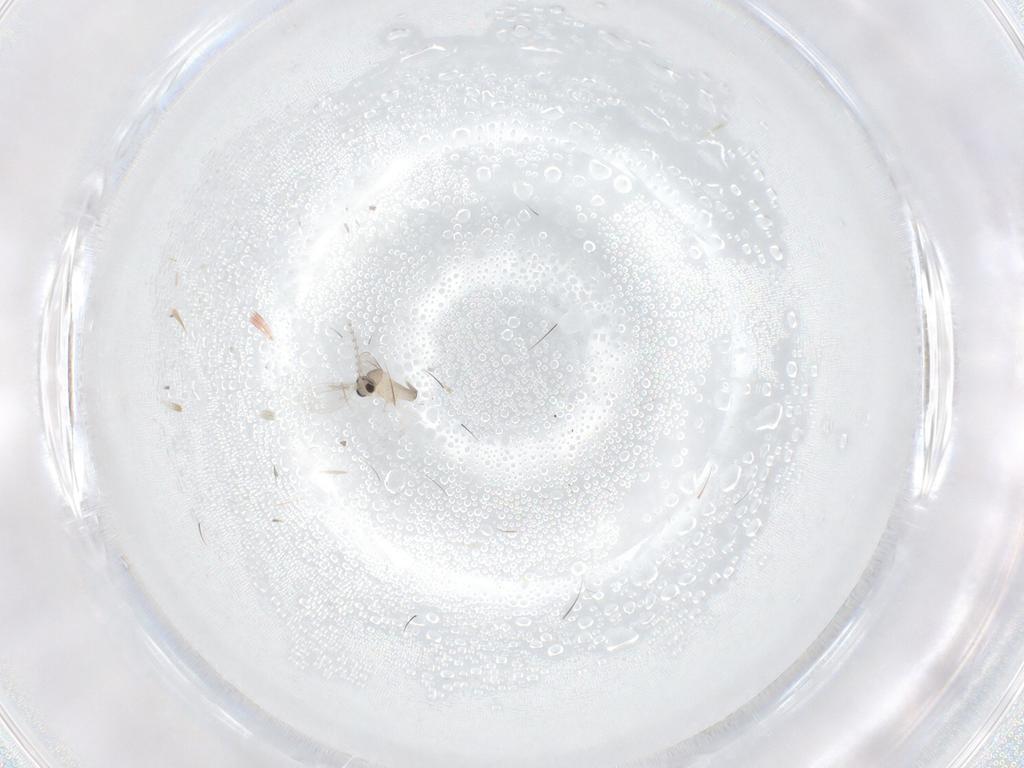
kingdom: Animalia
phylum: Arthropoda
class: Insecta
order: Diptera
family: Cecidomyiidae
